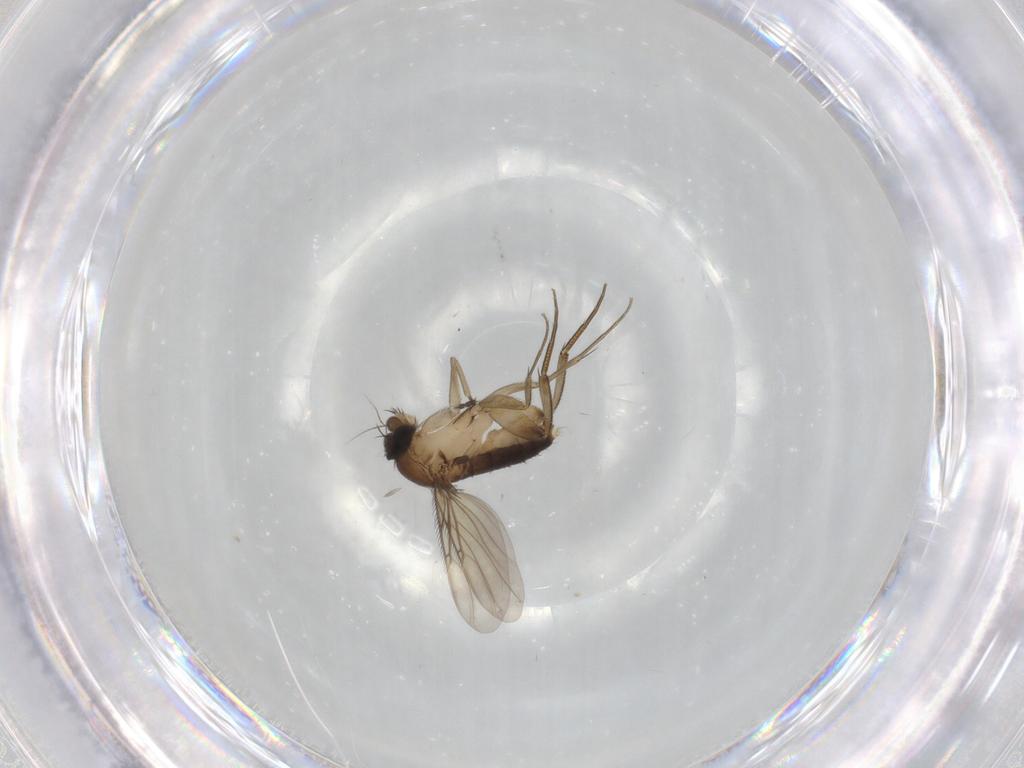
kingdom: Animalia
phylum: Arthropoda
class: Insecta
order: Diptera
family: Phoridae
